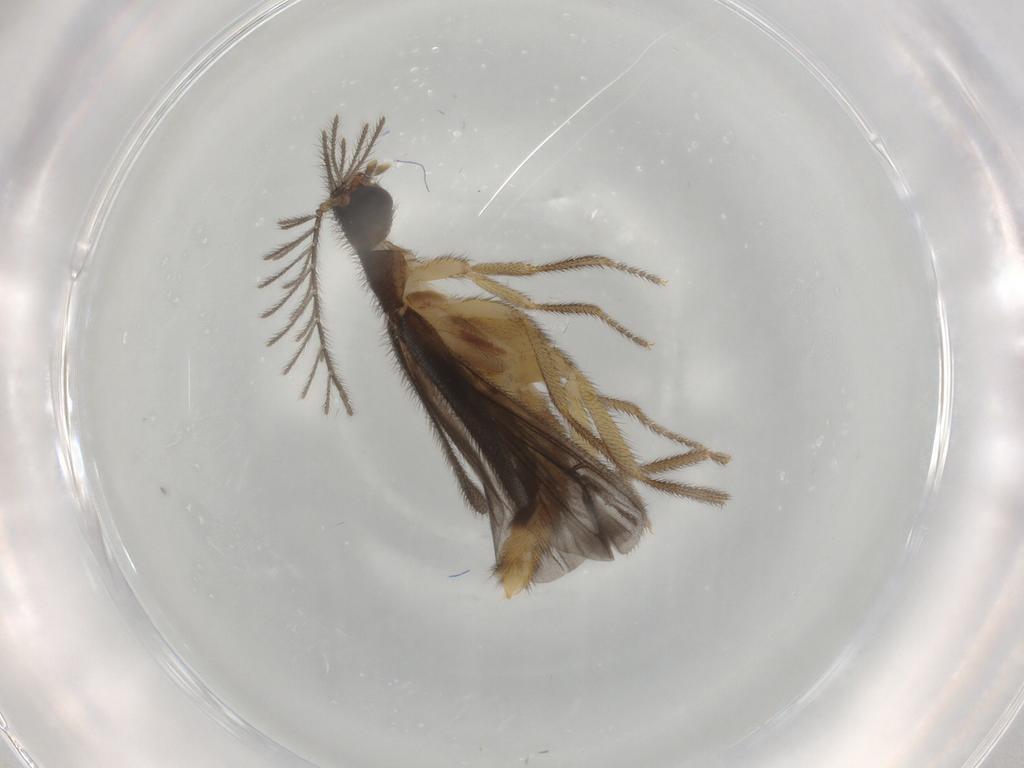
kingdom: Animalia
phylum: Arthropoda
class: Insecta
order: Coleoptera
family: Phengodidae
